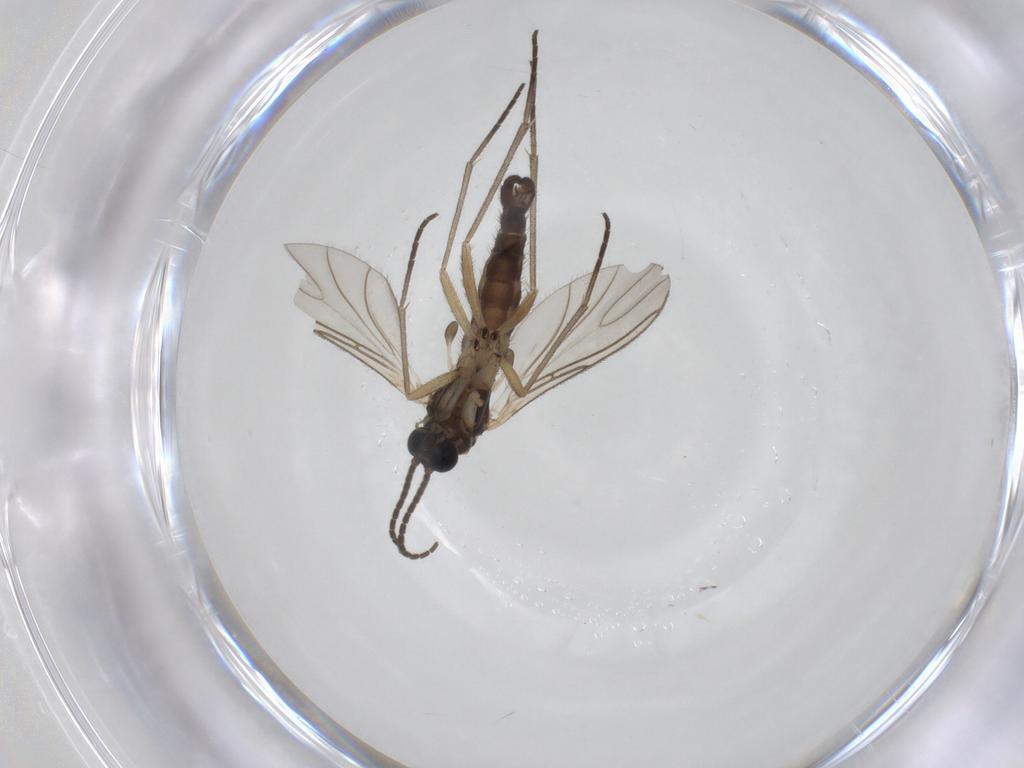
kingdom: Animalia
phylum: Arthropoda
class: Insecta
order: Diptera
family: Sciaridae
